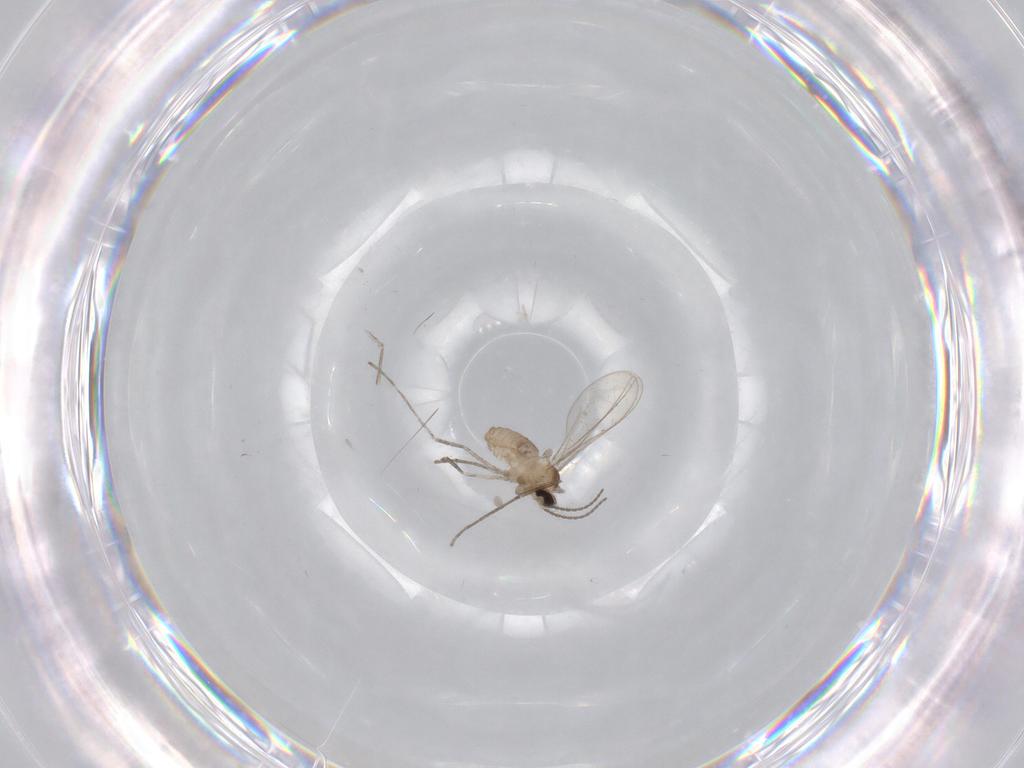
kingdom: Animalia
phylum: Arthropoda
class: Insecta
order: Diptera
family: Cecidomyiidae
